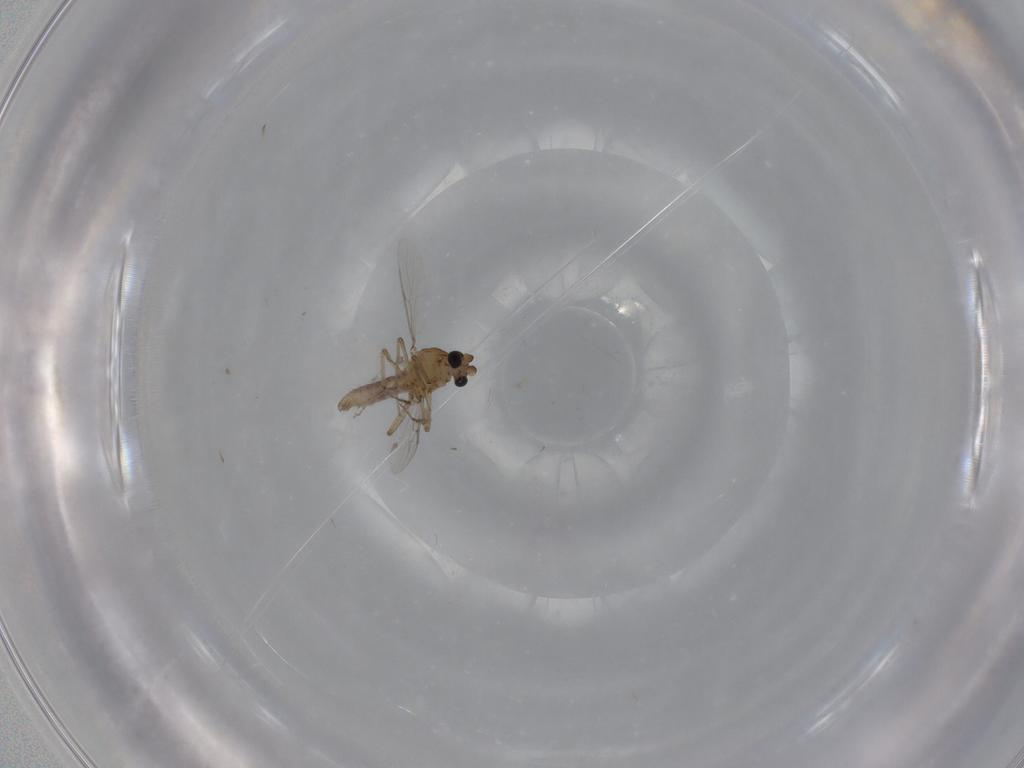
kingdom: Animalia
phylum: Arthropoda
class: Insecta
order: Diptera
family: Ceratopogonidae
